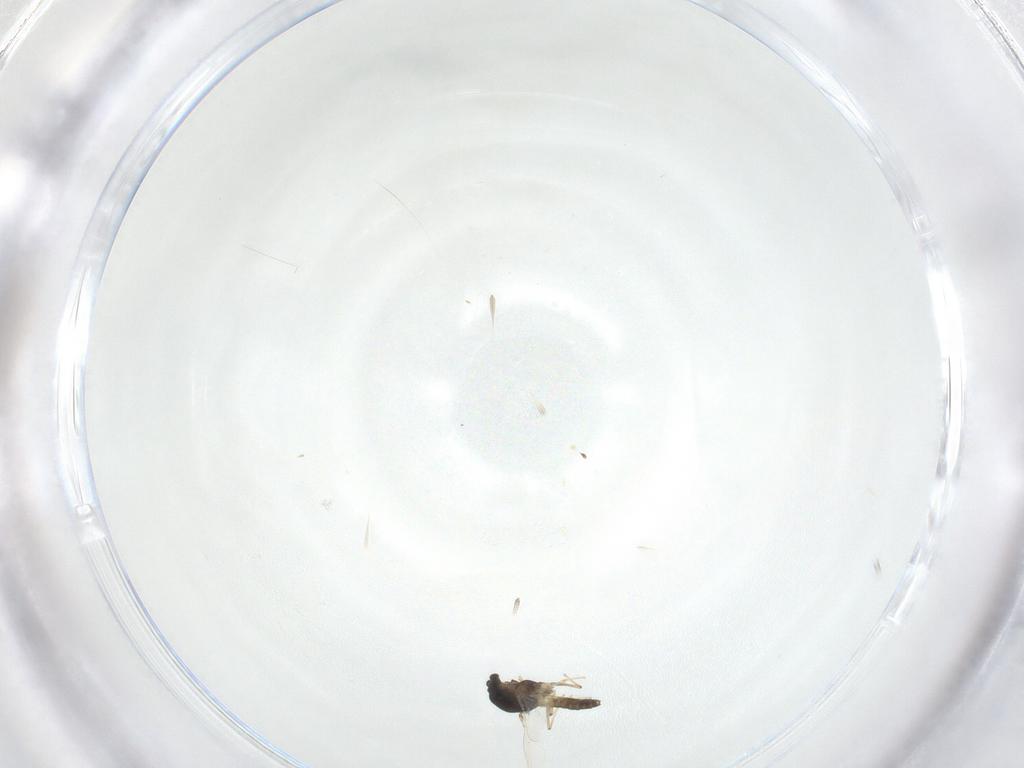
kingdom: Animalia
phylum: Arthropoda
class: Insecta
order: Diptera
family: Chironomidae
